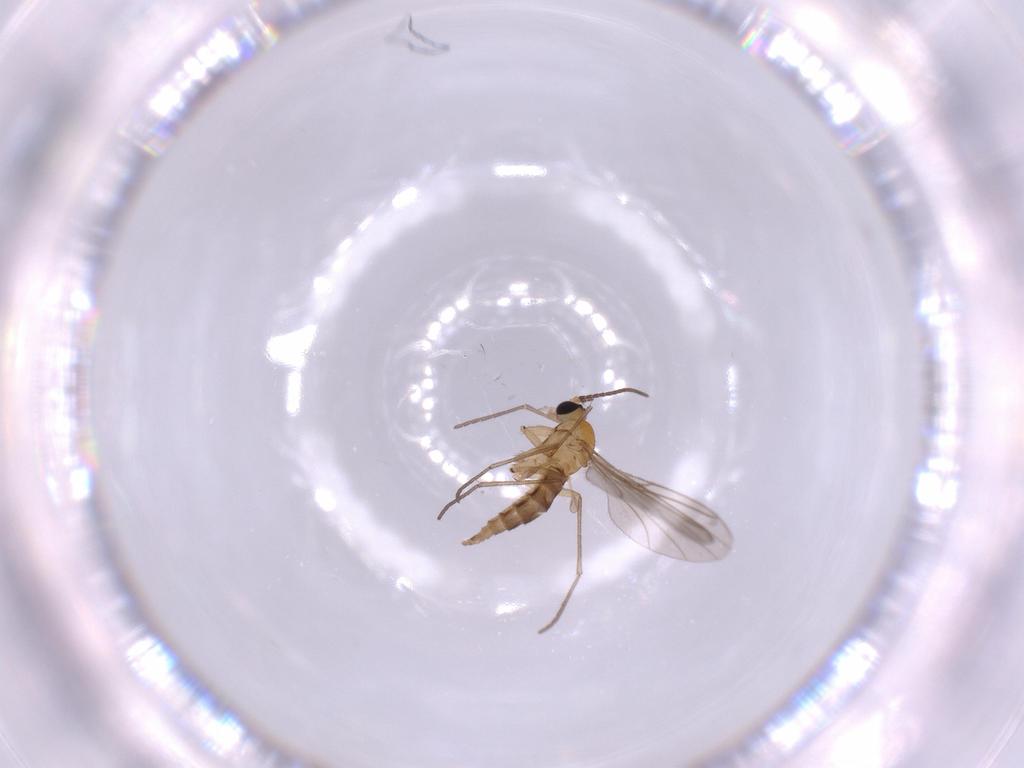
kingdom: Animalia
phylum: Arthropoda
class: Insecta
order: Diptera
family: Sciaridae
